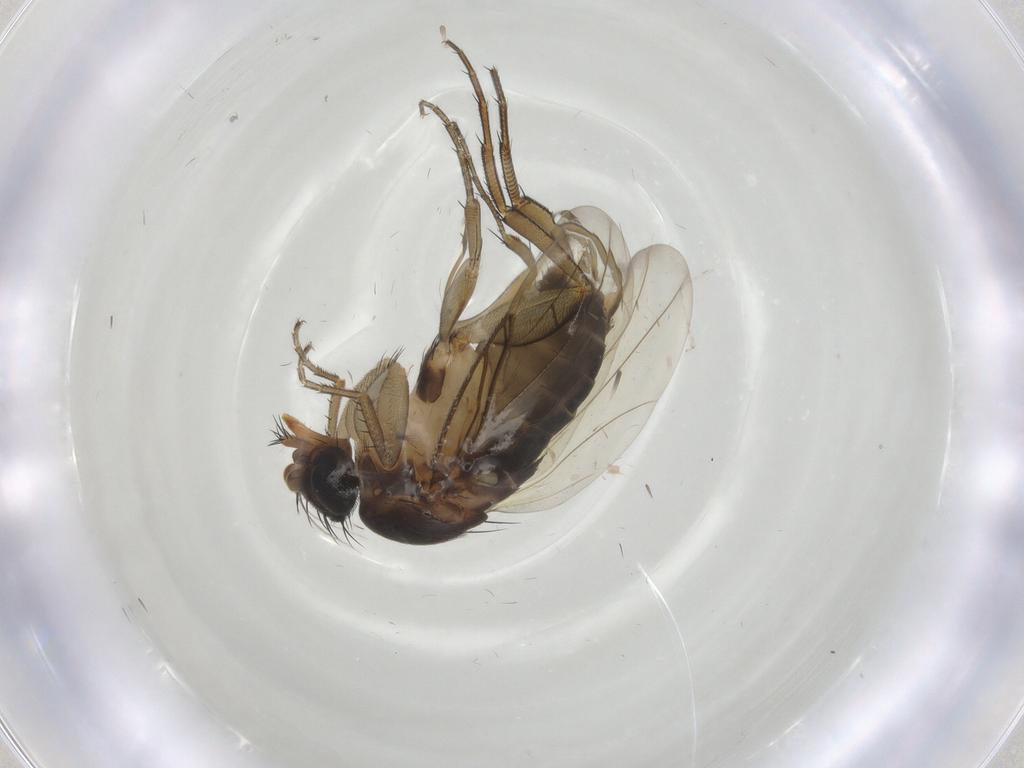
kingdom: Animalia
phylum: Arthropoda
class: Insecta
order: Diptera
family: Phoridae
